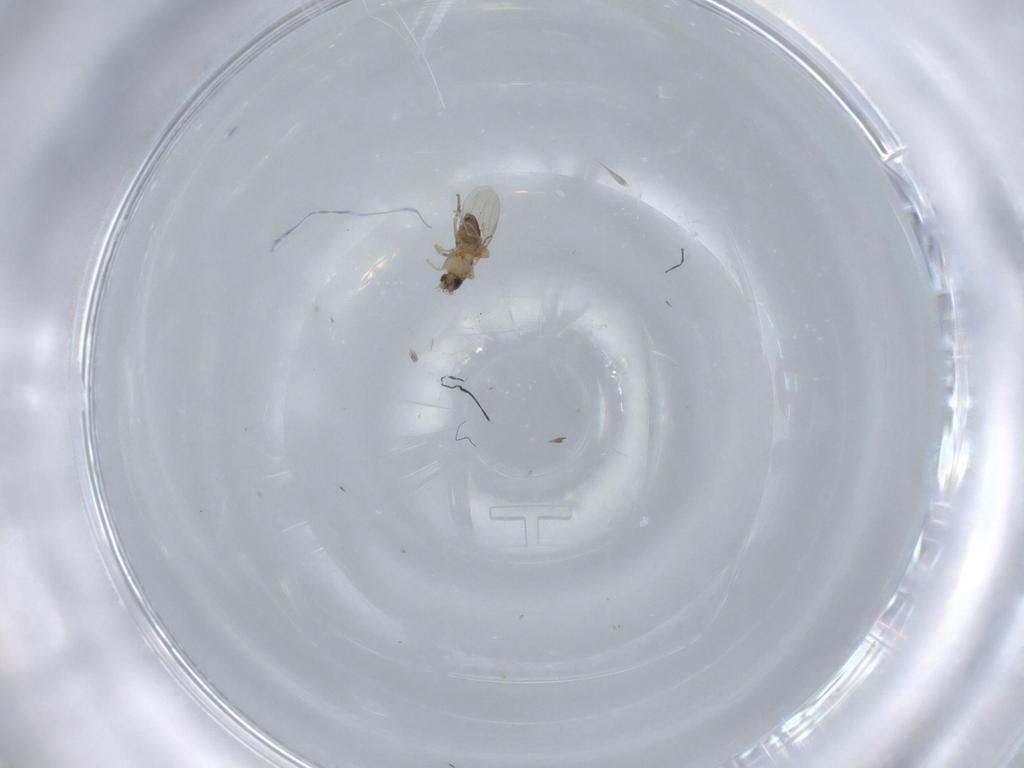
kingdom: Animalia
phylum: Arthropoda
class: Insecta
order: Diptera
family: Phoridae
